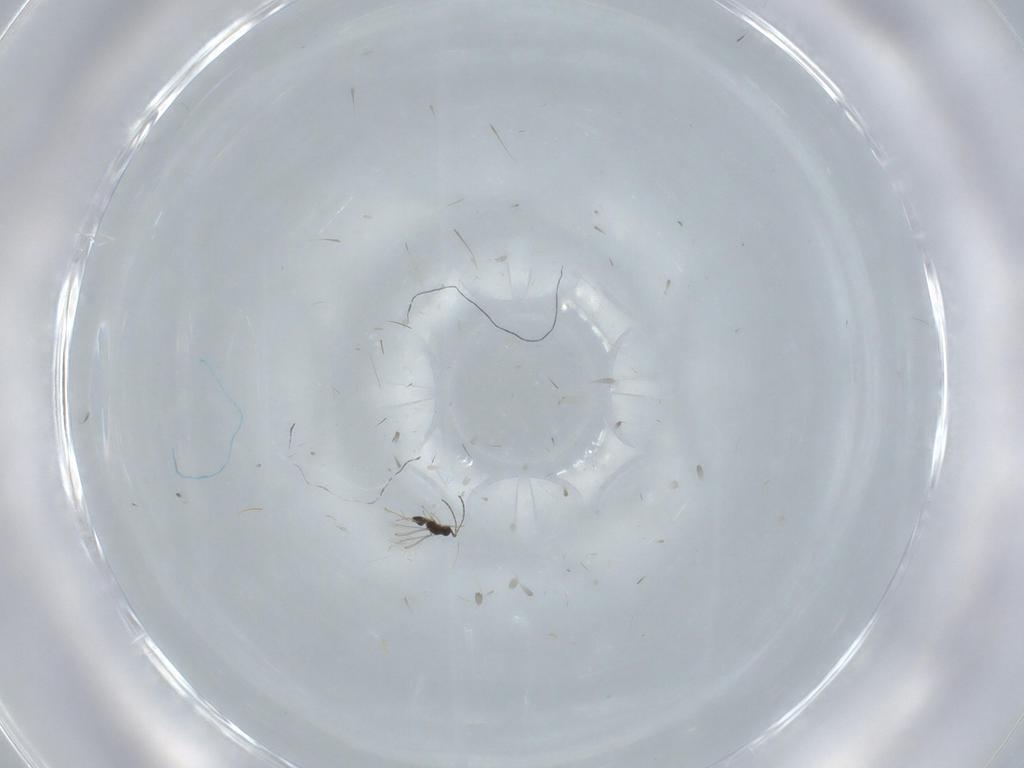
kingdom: Animalia
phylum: Arthropoda
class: Insecta
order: Hymenoptera
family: Mymaridae
